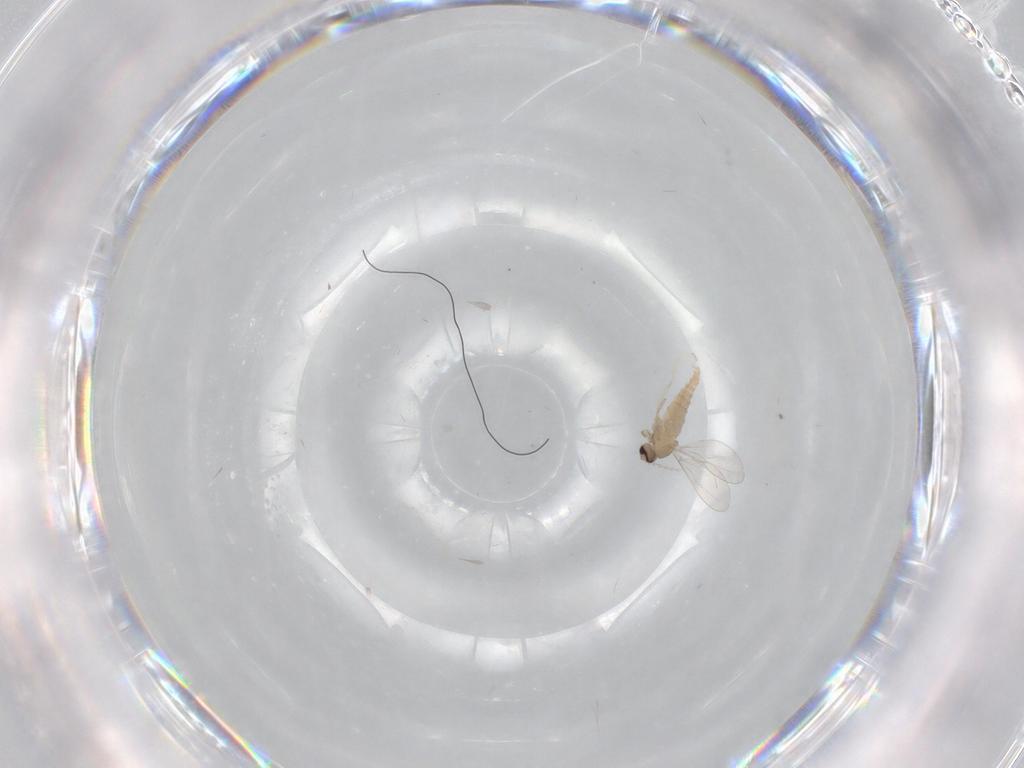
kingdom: Animalia
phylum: Arthropoda
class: Insecta
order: Diptera
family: Cecidomyiidae
